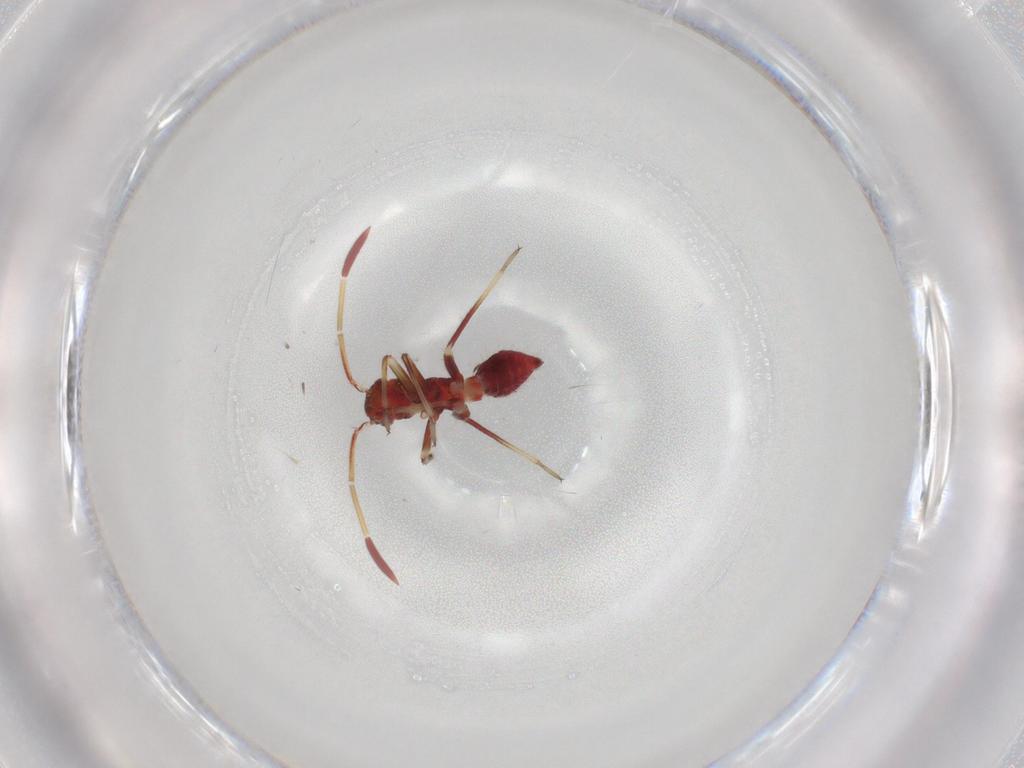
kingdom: Animalia
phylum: Arthropoda
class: Insecta
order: Hemiptera
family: Miridae
